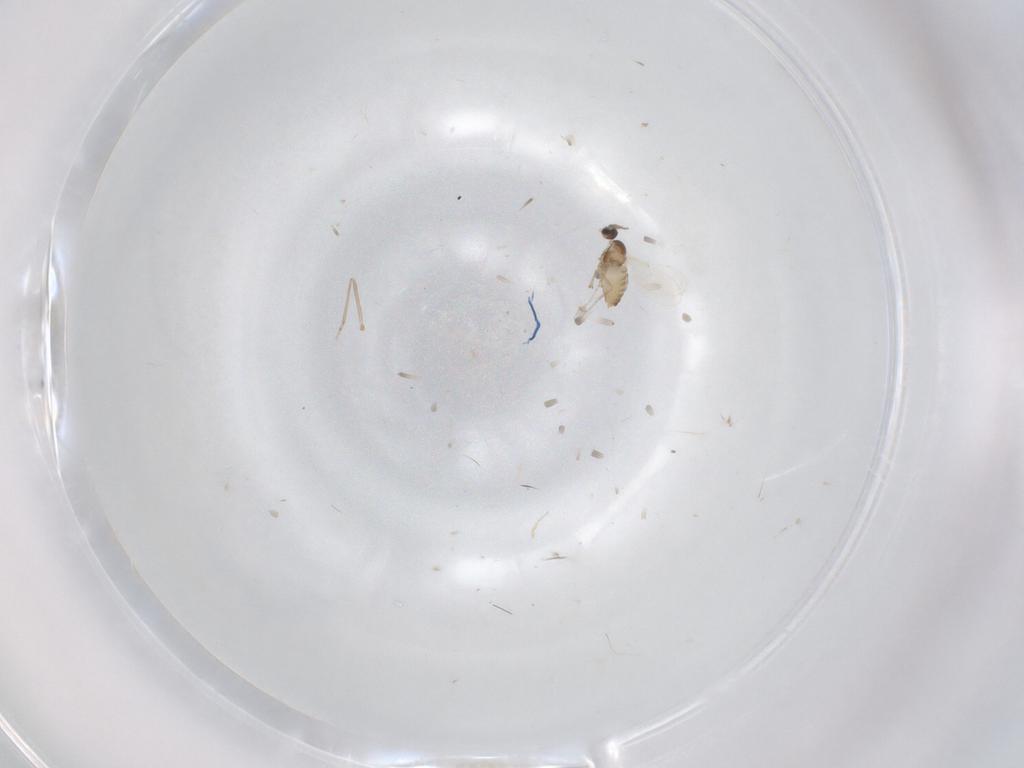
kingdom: Animalia
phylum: Arthropoda
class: Insecta
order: Diptera
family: Cecidomyiidae
